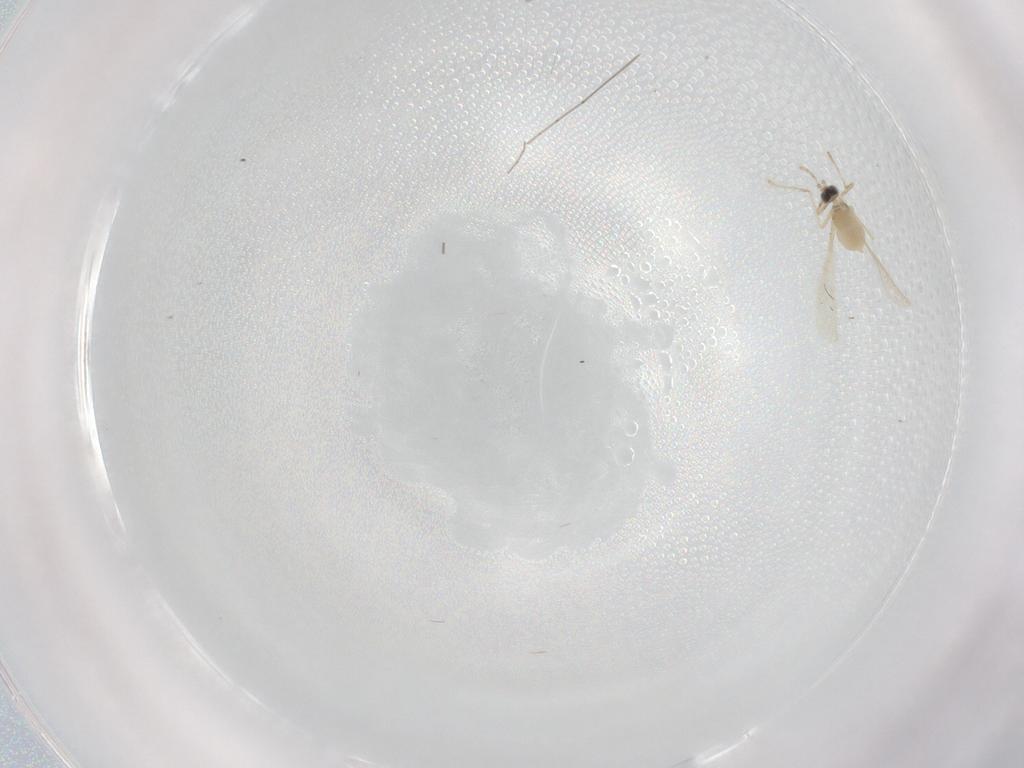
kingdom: Animalia
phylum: Arthropoda
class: Insecta
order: Diptera
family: Chironomidae
